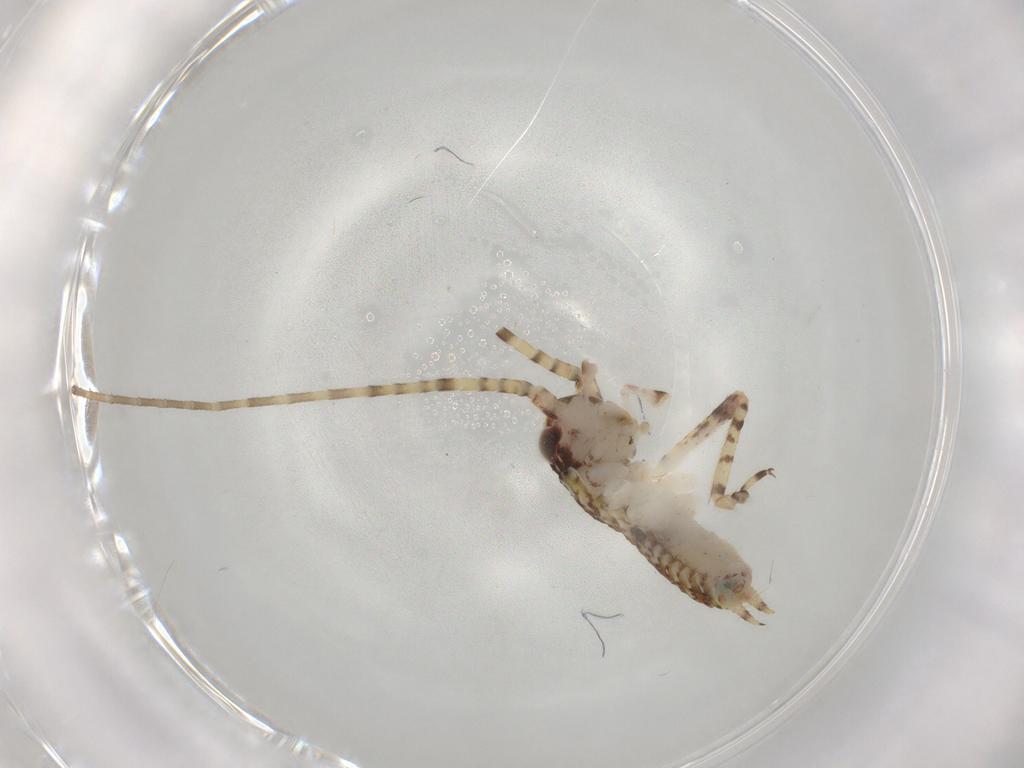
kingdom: Animalia
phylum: Arthropoda
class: Insecta
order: Orthoptera
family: Gryllidae
